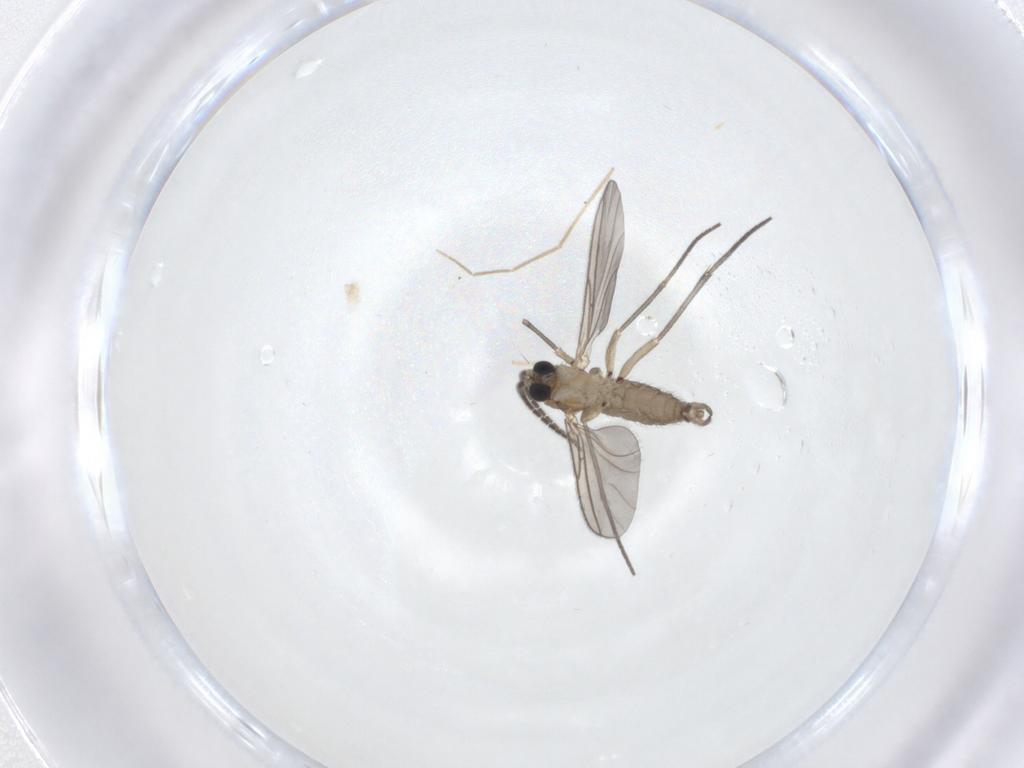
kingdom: Animalia
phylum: Arthropoda
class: Insecta
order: Diptera
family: Sciaridae
